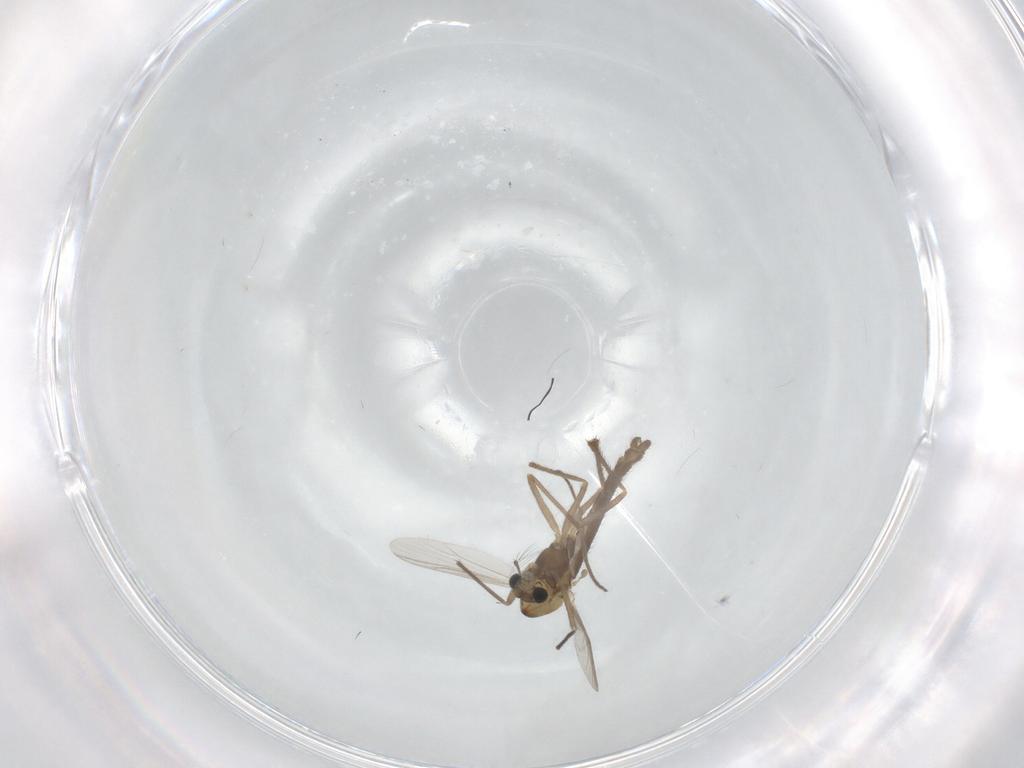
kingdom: Animalia
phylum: Arthropoda
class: Insecta
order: Diptera
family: Chironomidae
